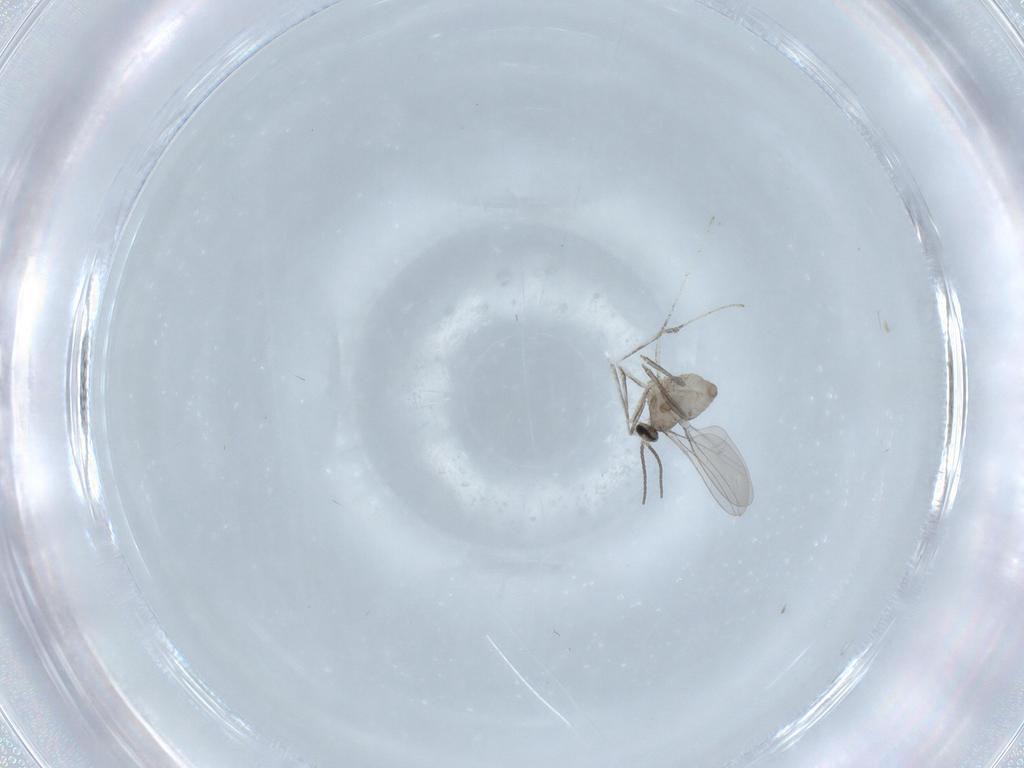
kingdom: Animalia
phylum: Arthropoda
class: Insecta
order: Diptera
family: Cecidomyiidae
